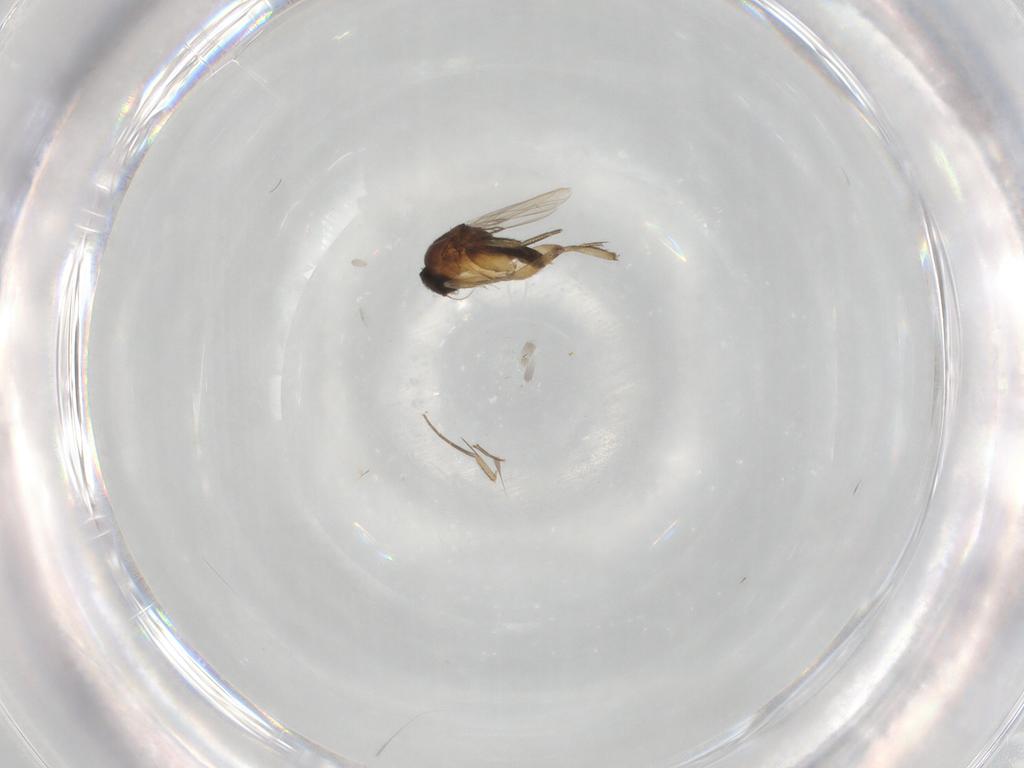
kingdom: Animalia
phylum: Arthropoda
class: Insecta
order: Diptera
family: Phoridae
